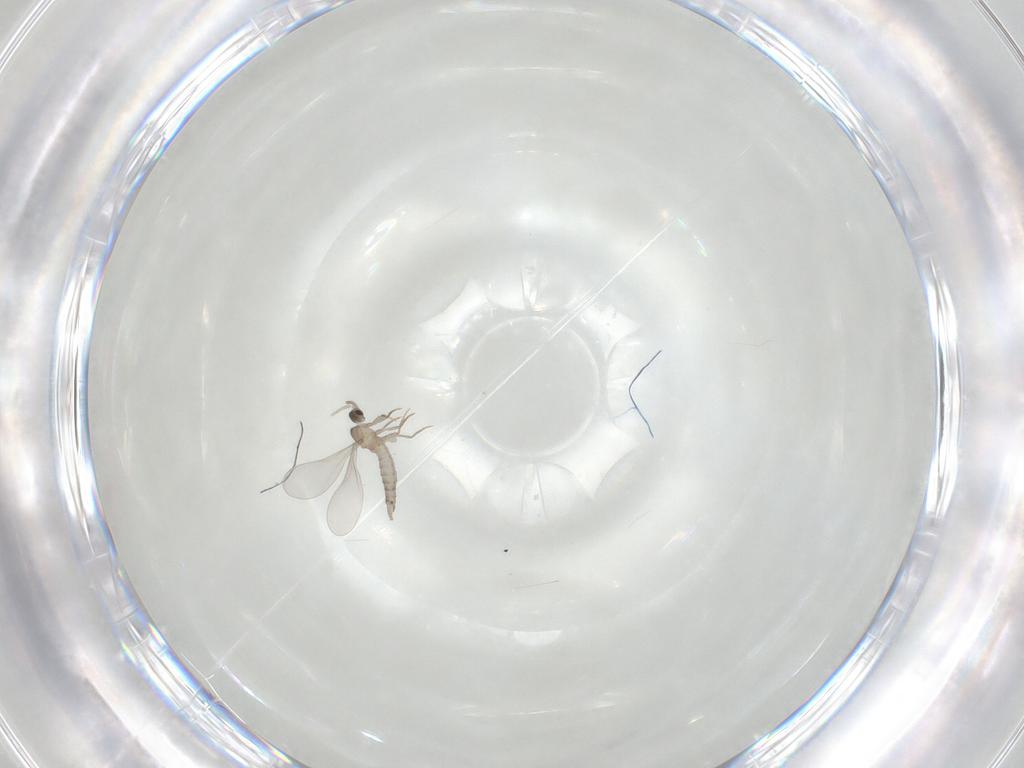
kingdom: Animalia
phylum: Arthropoda
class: Insecta
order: Diptera
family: Cecidomyiidae
